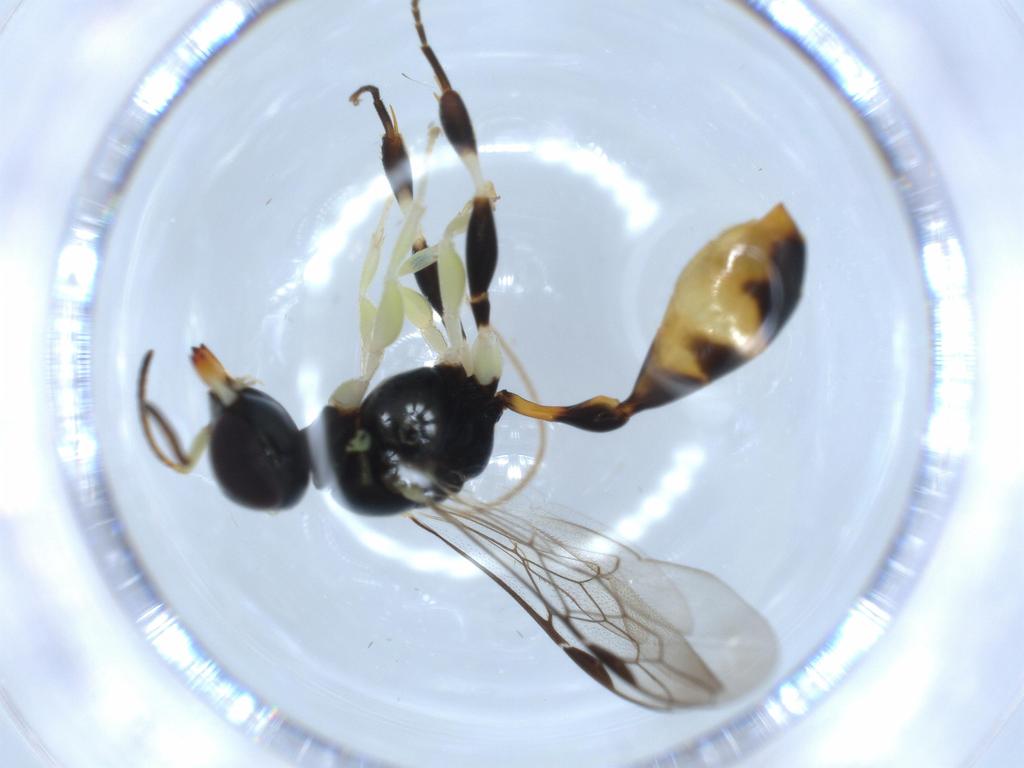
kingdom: Animalia
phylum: Arthropoda
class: Insecta
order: Hymenoptera
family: Crabronidae
